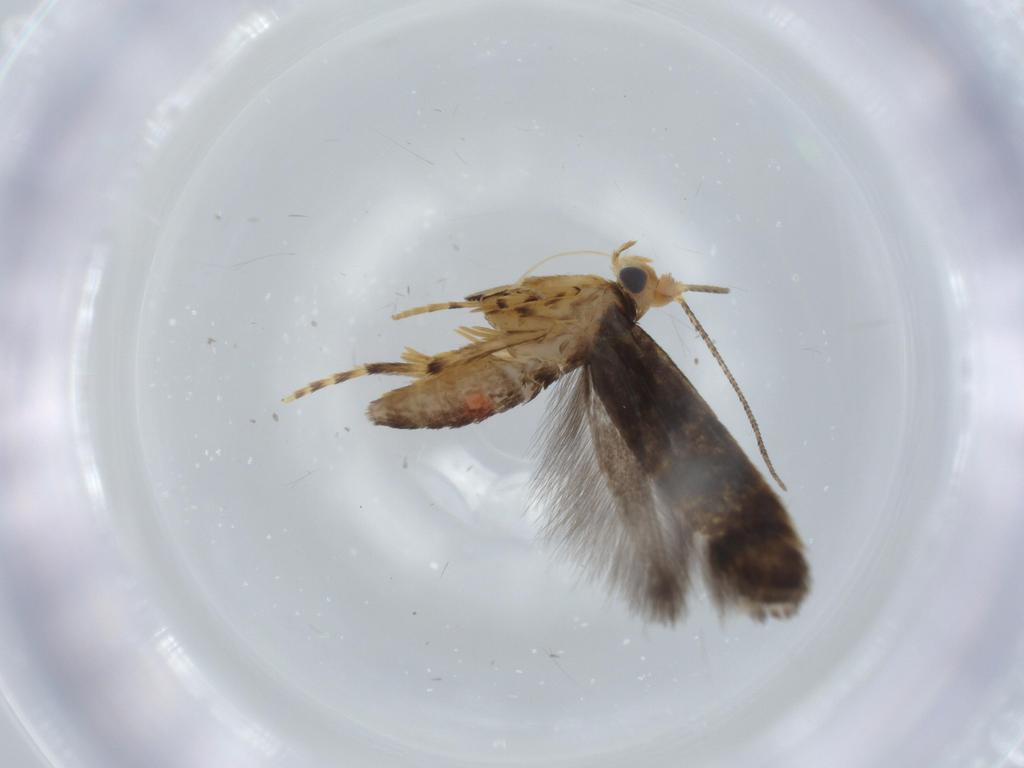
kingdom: Animalia
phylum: Arthropoda
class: Insecta
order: Lepidoptera
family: Argyresthiidae
